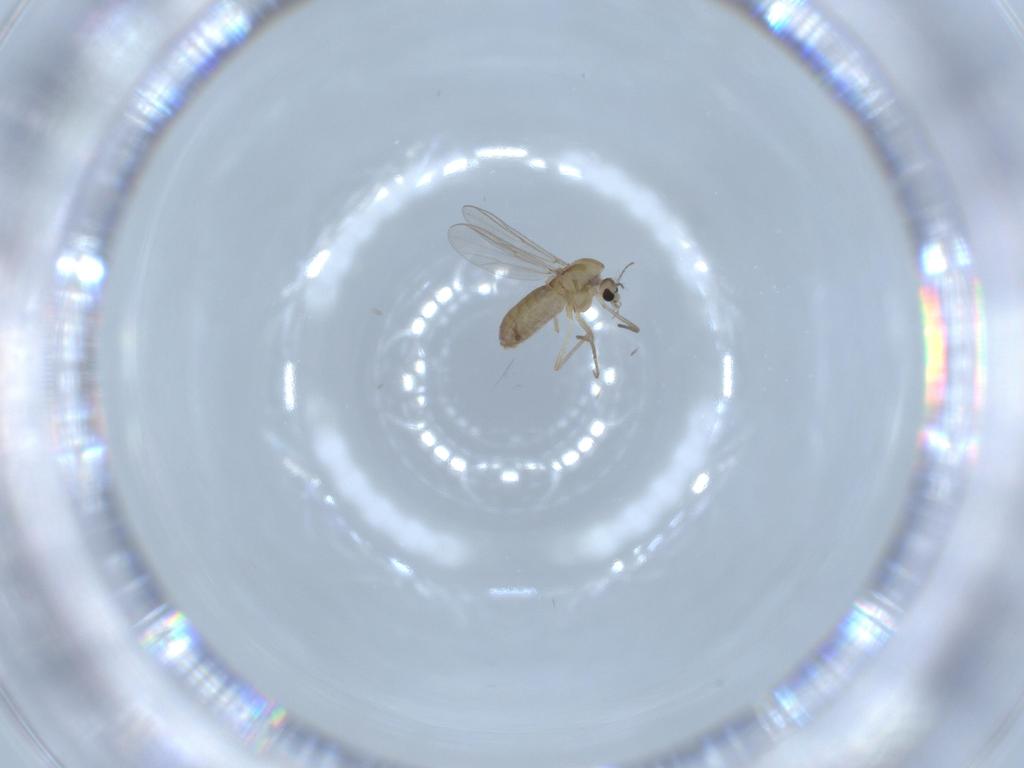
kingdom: Animalia
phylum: Arthropoda
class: Insecta
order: Diptera
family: Chironomidae
